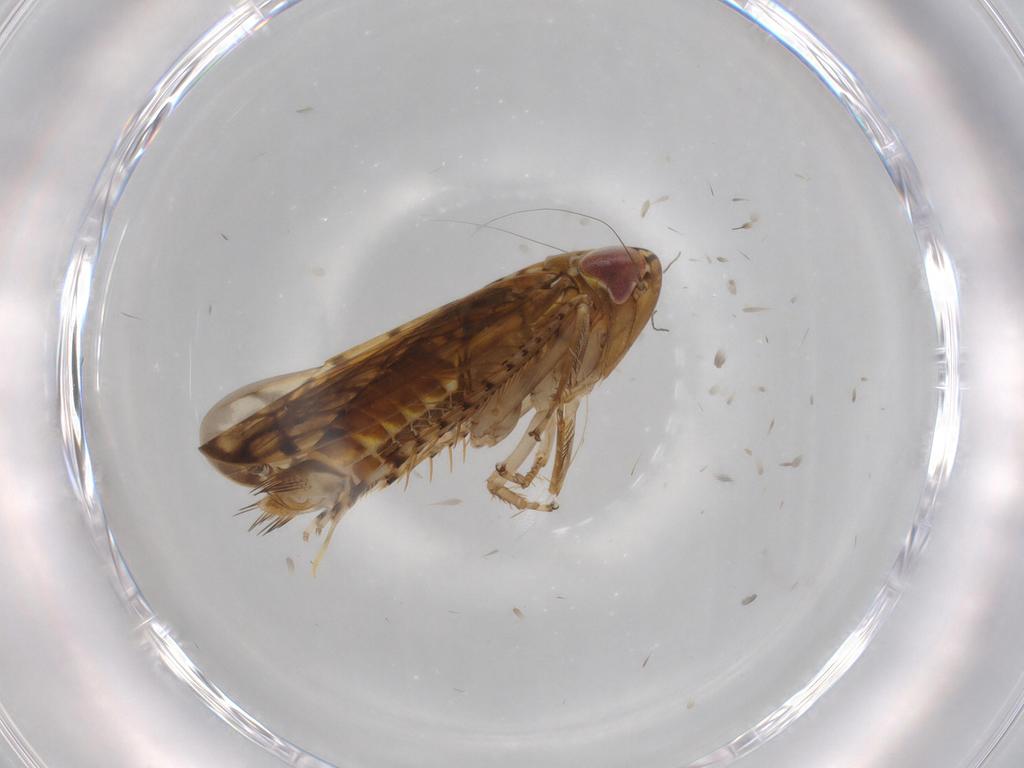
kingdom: Animalia
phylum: Arthropoda
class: Insecta
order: Hemiptera
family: Cicadellidae
